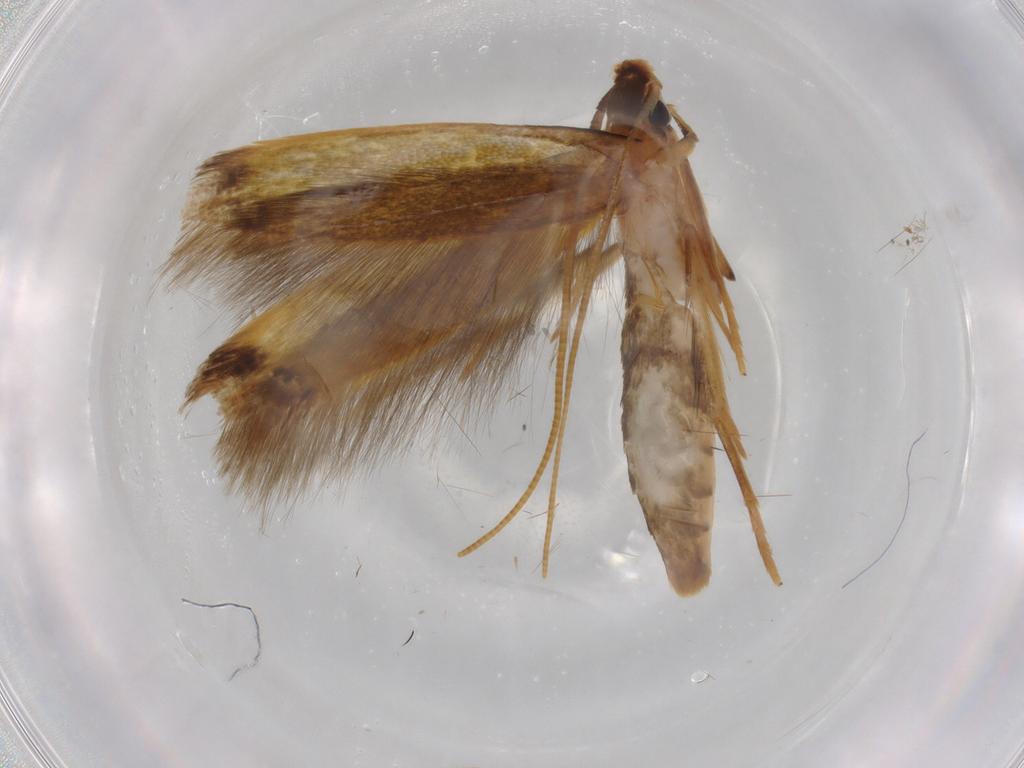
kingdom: Animalia
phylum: Arthropoda
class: Insecta
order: Lepidoptera
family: Tineidae
